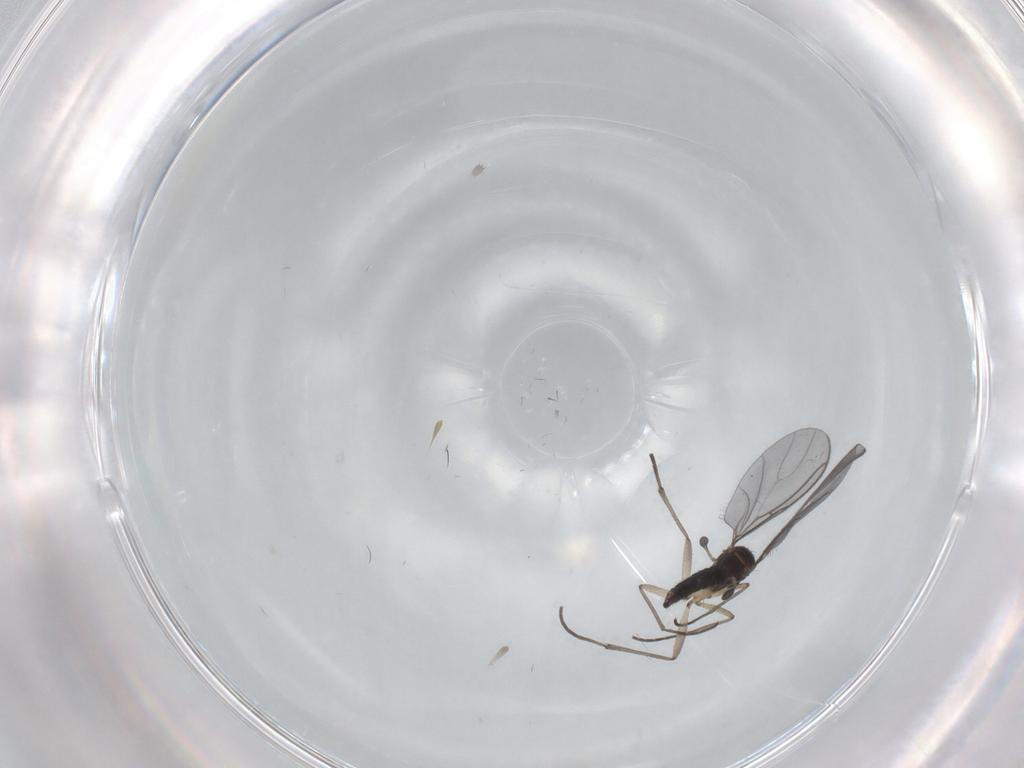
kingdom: Animalia
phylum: Arthropoda
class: Insecta
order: Diptera
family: Sciaridae
